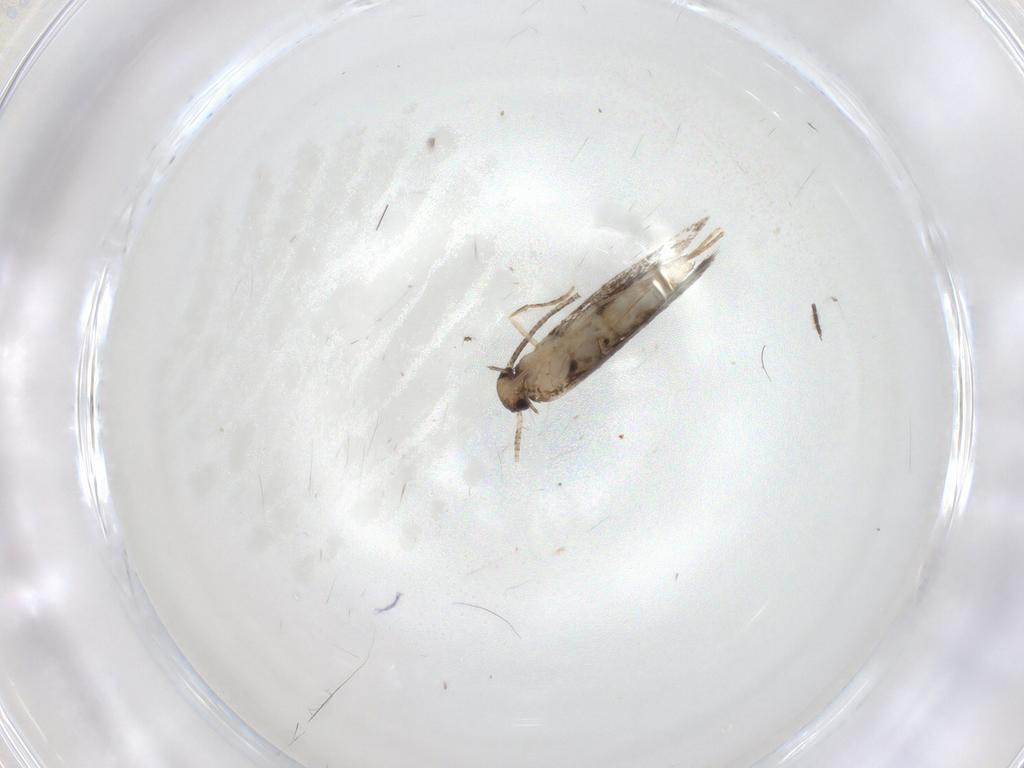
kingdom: Animalia
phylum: Arthropoda
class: Insecta
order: Lepidoptera
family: Gracillariidae
